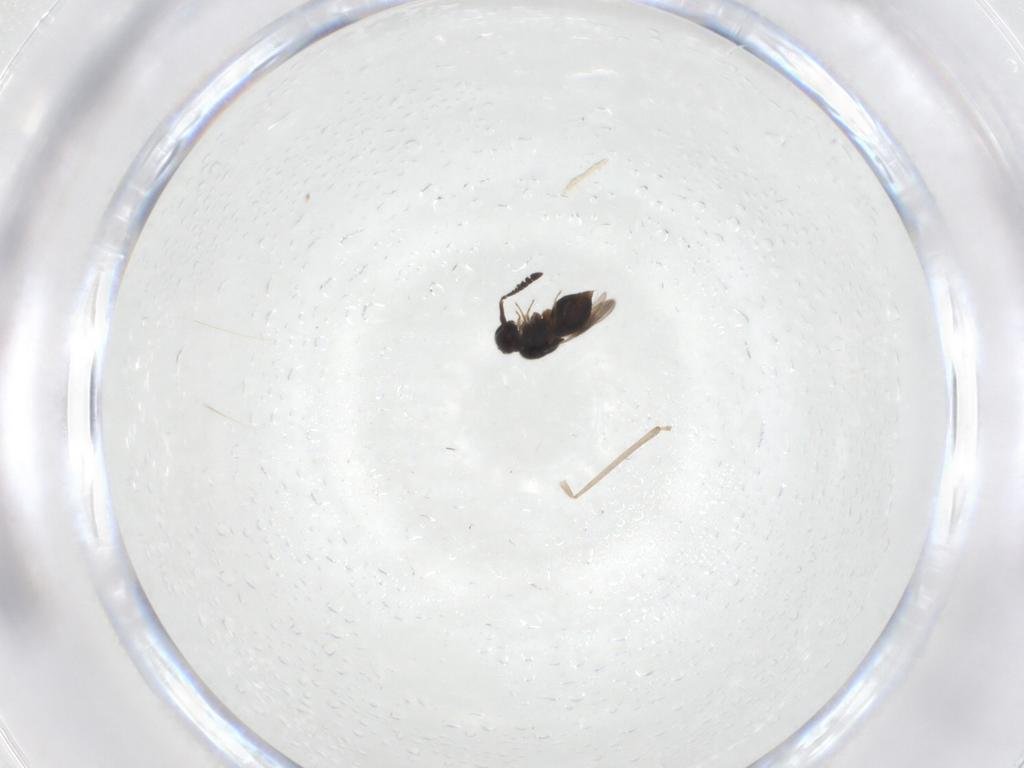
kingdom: Animalia
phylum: Arthropoda
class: Insecta
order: Hymenoptera
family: Ceraphronidae
